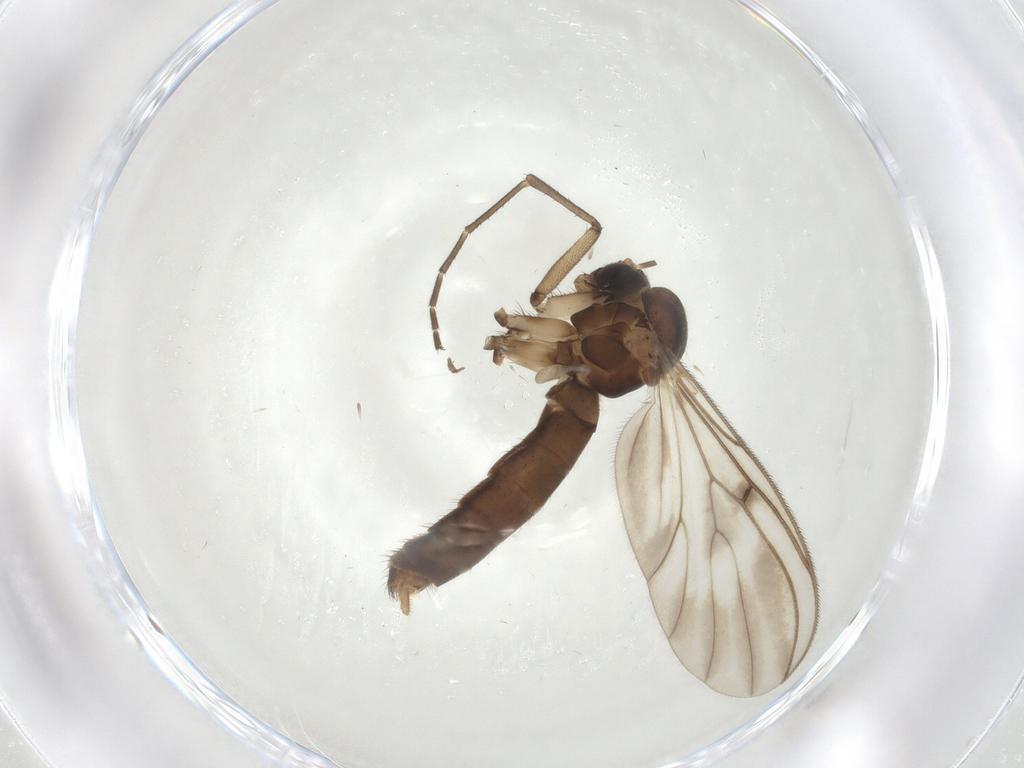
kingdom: Animalia
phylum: Arthropoda
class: Insecta
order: Diptera
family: Mycetophilidae
